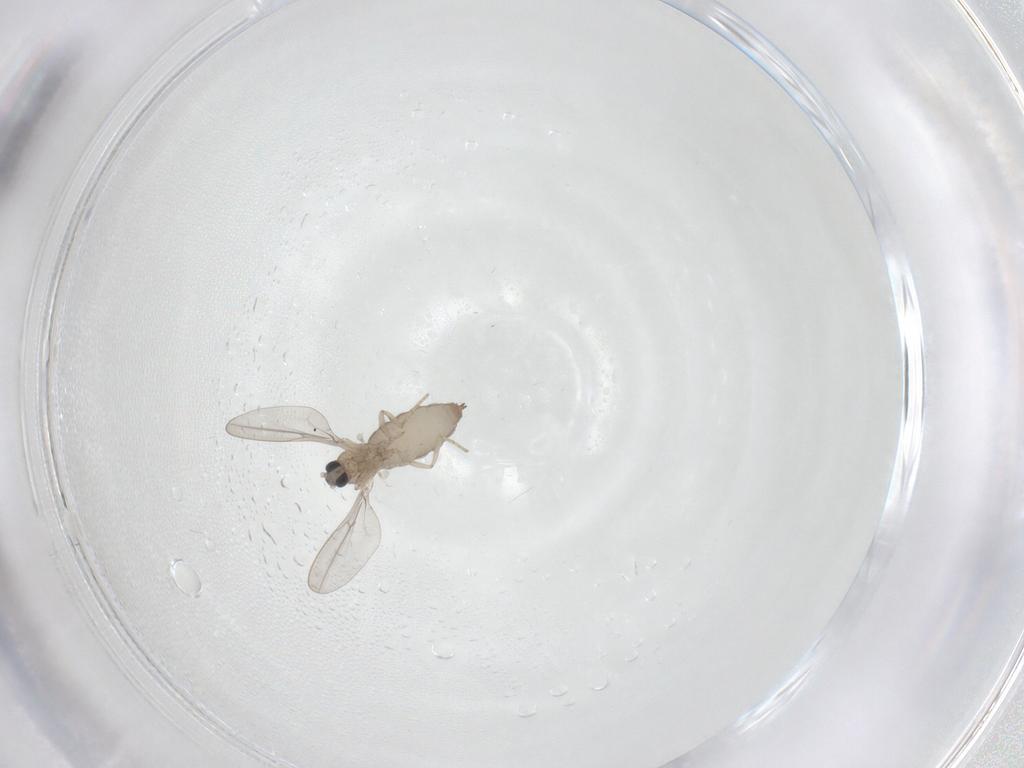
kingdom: Animalia
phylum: Arthropoda
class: Insecta
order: Diptera
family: Cecidomyiidae
